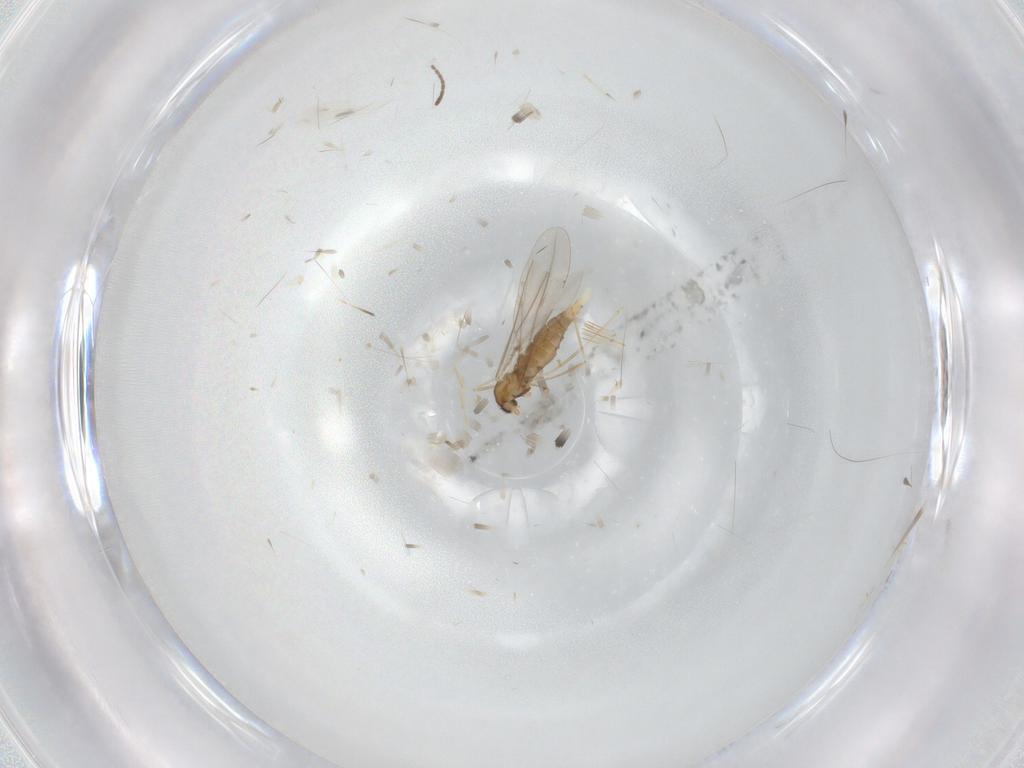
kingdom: Animalia
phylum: Arthropoda
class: Insecta
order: Diptera
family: Cecidomyiidae
